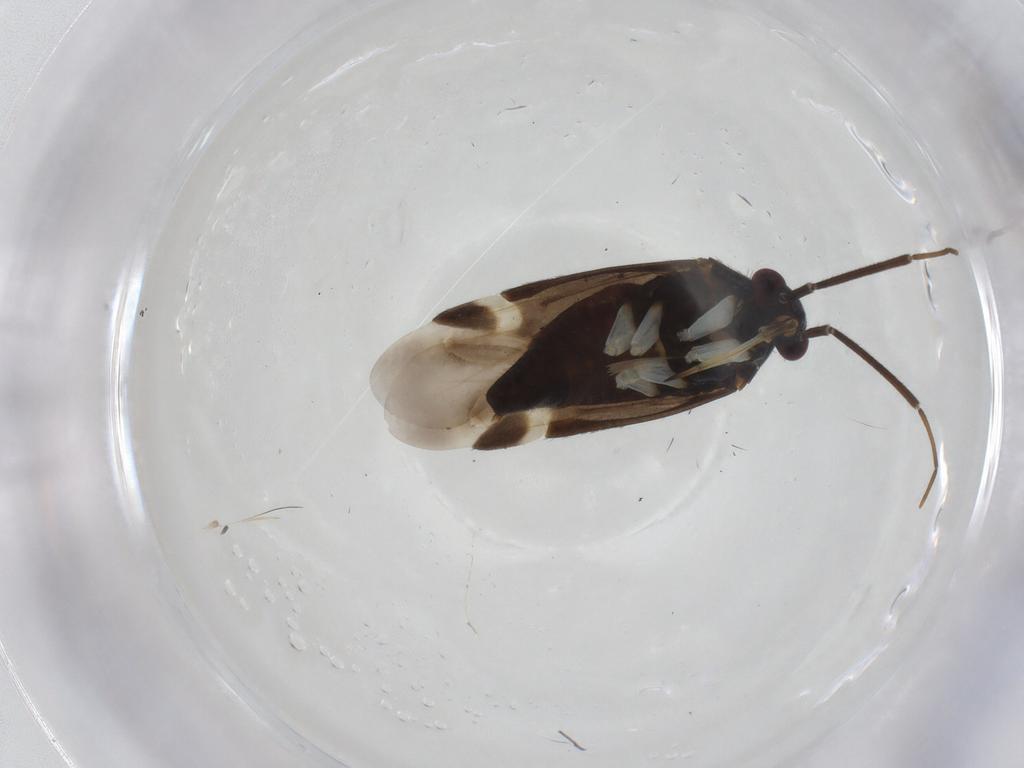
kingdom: Animalia
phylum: Arthropoda
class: Insecta
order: Hemiptera
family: Miridae
